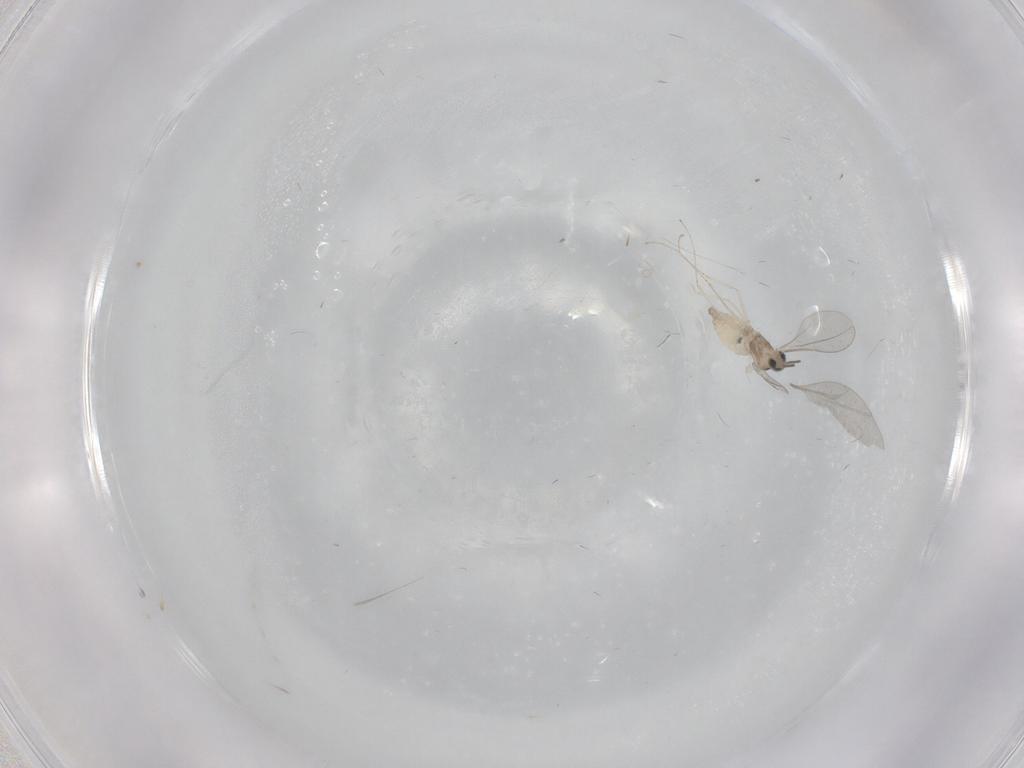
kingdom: Animalia
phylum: Arthropoda
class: Insecta
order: Diptera
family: Cecidomyiidae
